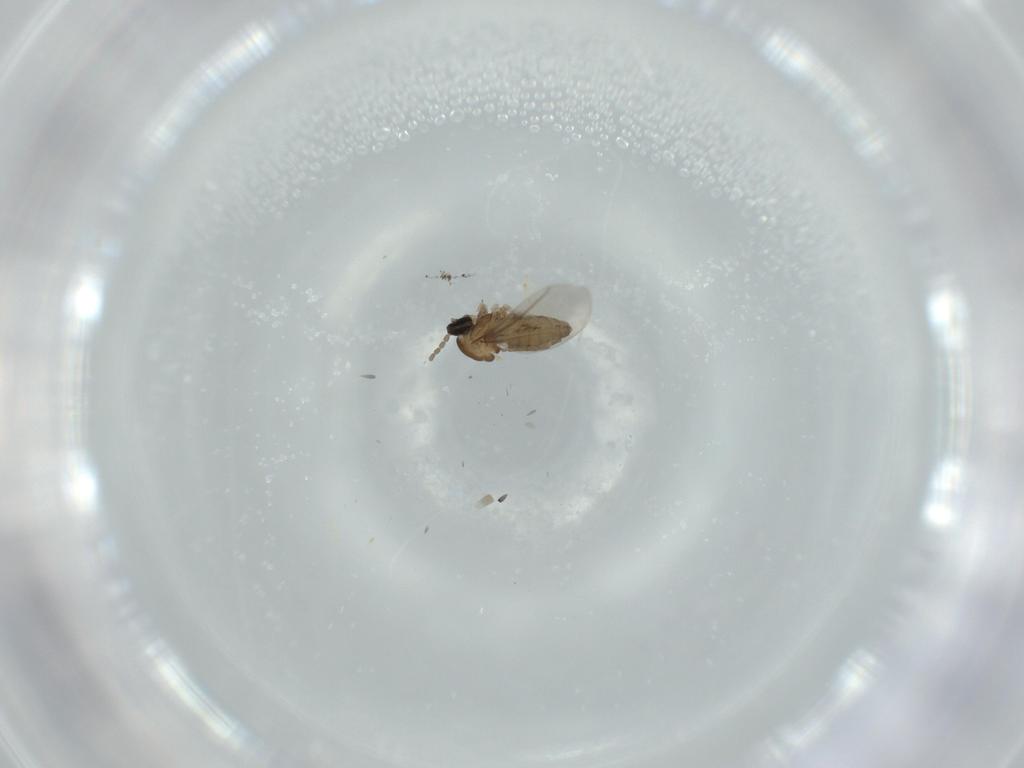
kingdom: Animalia
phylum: Arthropoda
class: Insecta
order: Diptera
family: Cecidomyiidae
